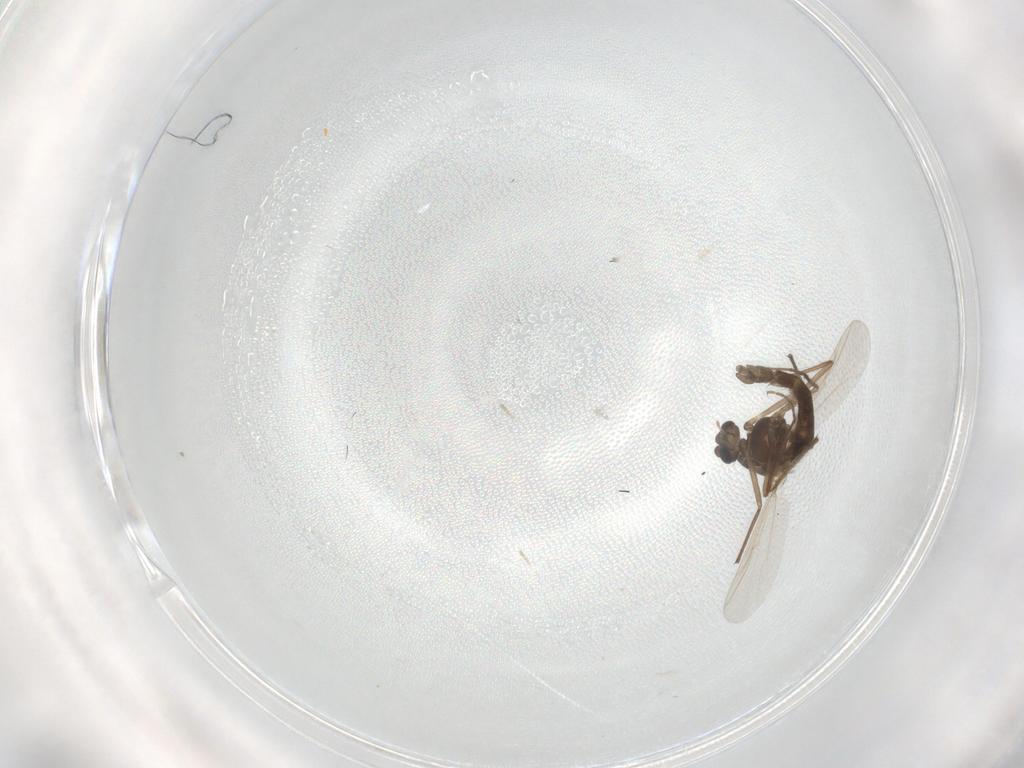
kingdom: Animalia
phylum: Arthropoda
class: Insecta
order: Diptera
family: Chironomidae
